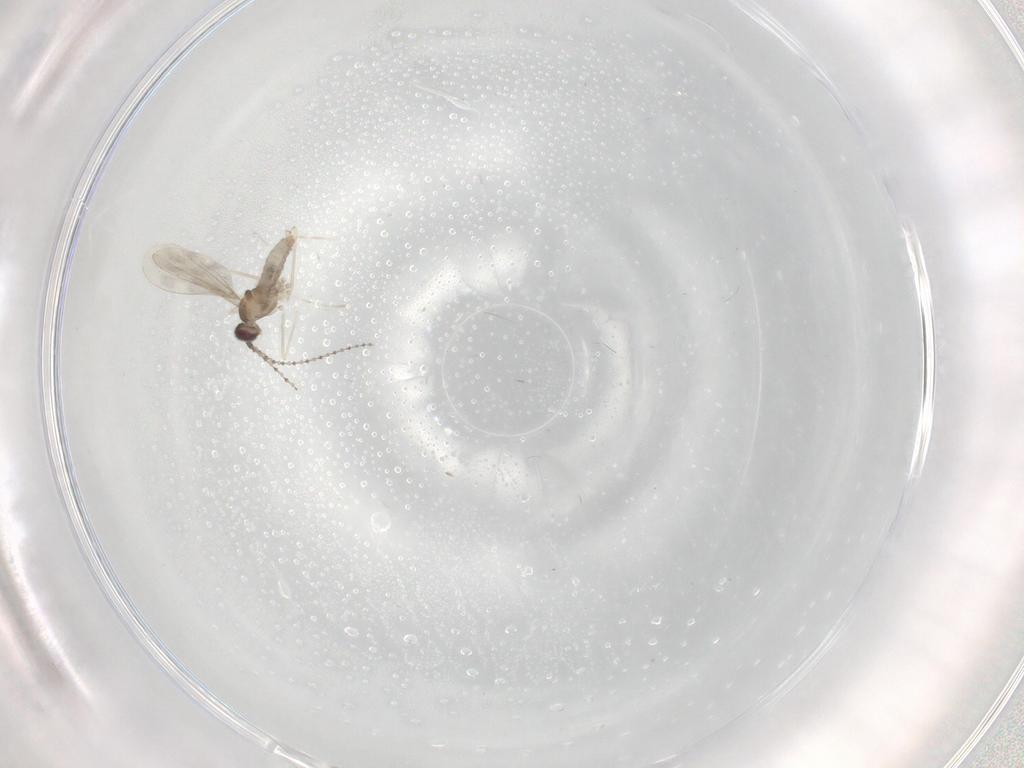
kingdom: Animalia
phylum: Arthropoda
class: Insecta
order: Diptera
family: Cecidomyiidae
